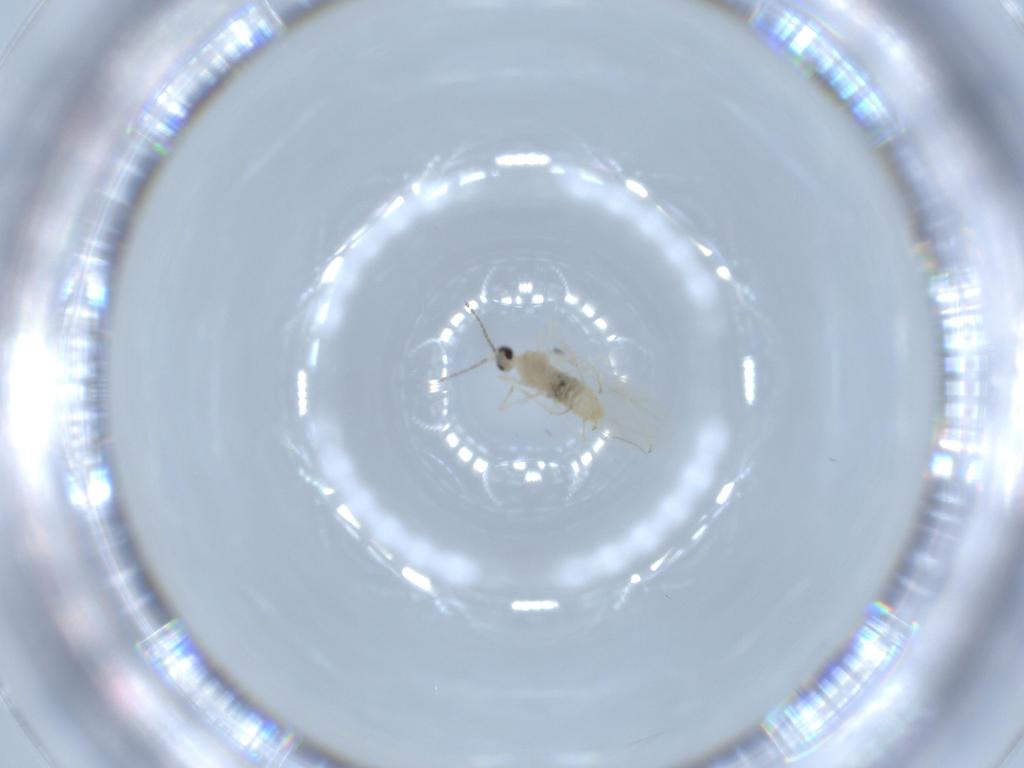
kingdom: Animalia
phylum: Arthropoda
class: Insecta
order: Diptera
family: Cecidomyiidae
